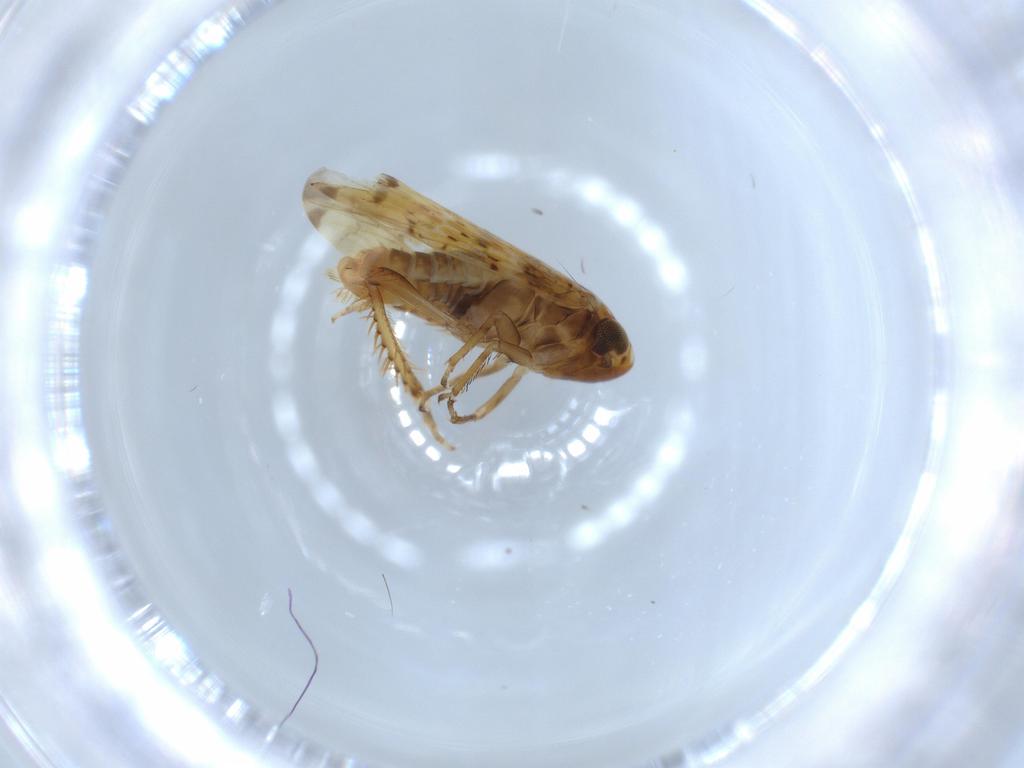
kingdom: Animalia
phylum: Arthropoda
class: Insecta
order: Hemiptera
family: Cicadellidae
